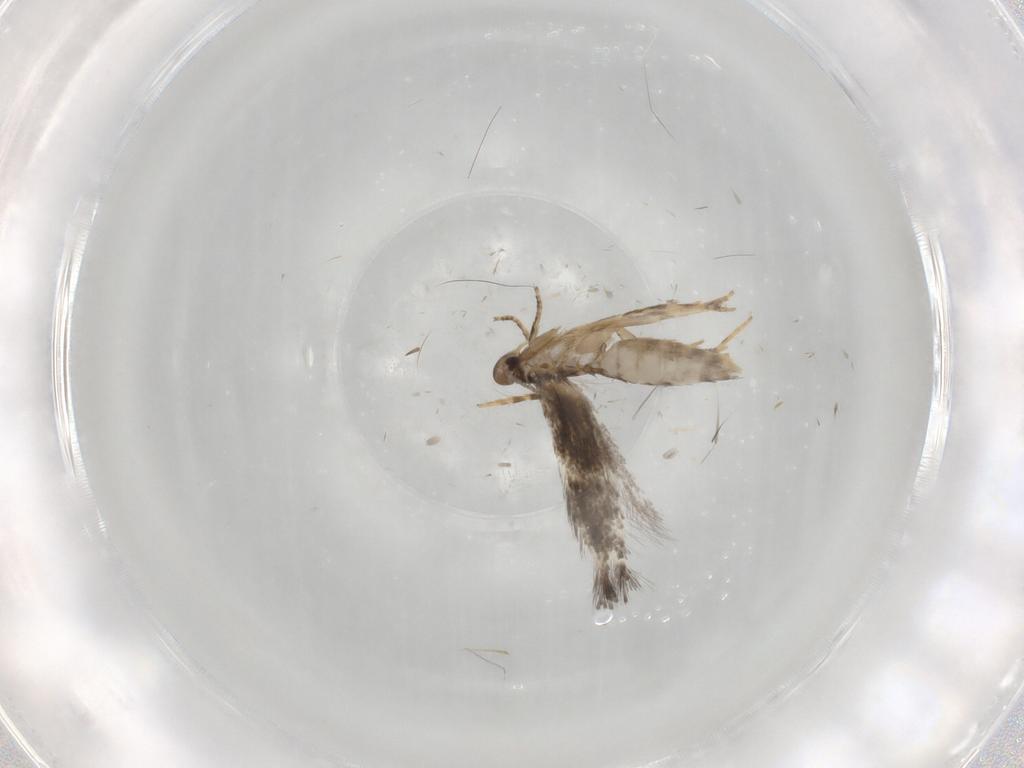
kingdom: Animalia
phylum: Arthropoda
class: Insecta
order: Lepidoptera
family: Elachistidae
